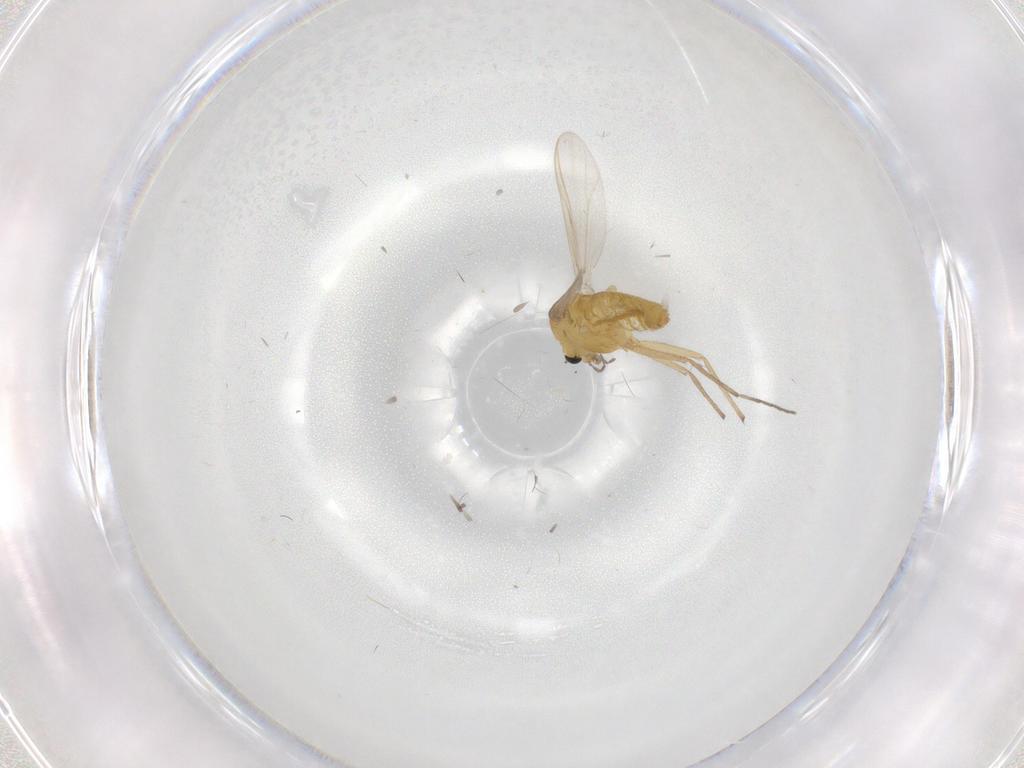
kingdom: Animalia
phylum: Arthropoda
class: Insecta
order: Diptera
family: Chironomidae
